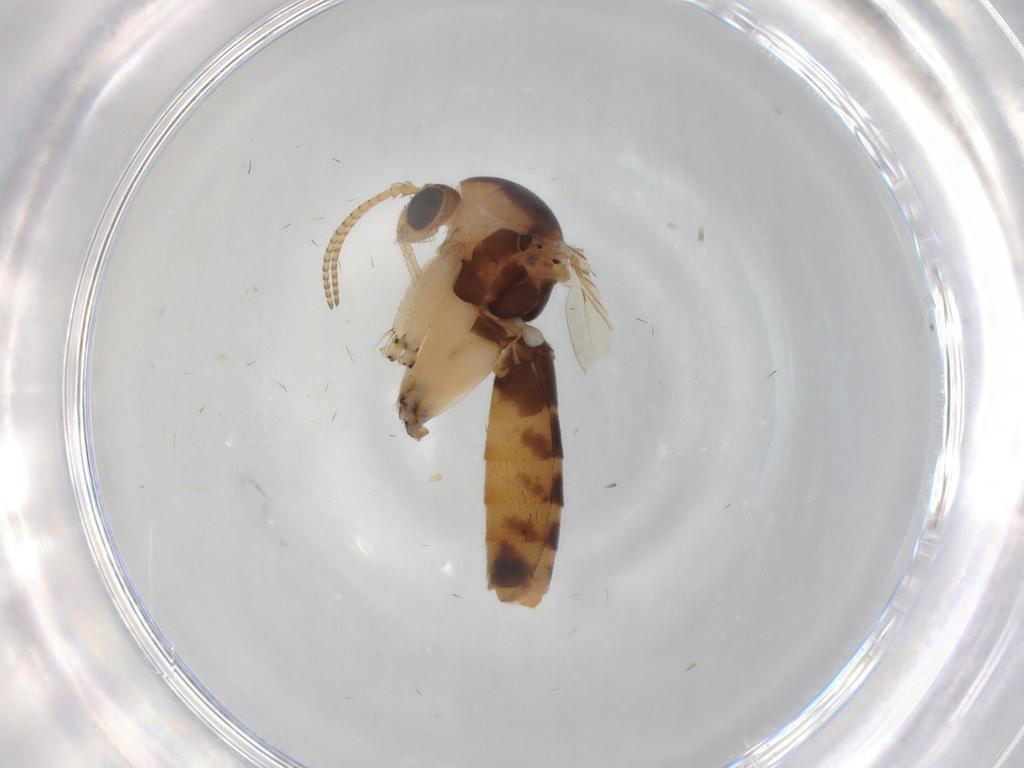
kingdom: Animalia
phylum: Arthropoda
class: Insecta
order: Diptera
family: Mycetophilidae
